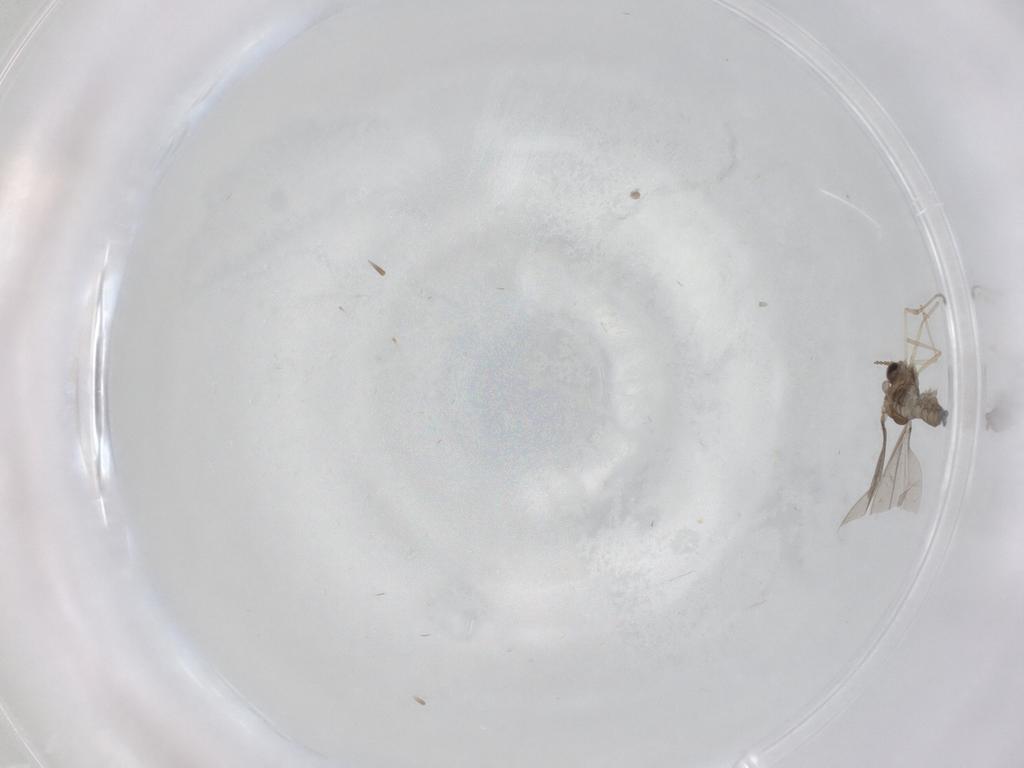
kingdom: Animalia
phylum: Arthropoda
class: Insecta
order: Diptera
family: Cecidomyiidae
